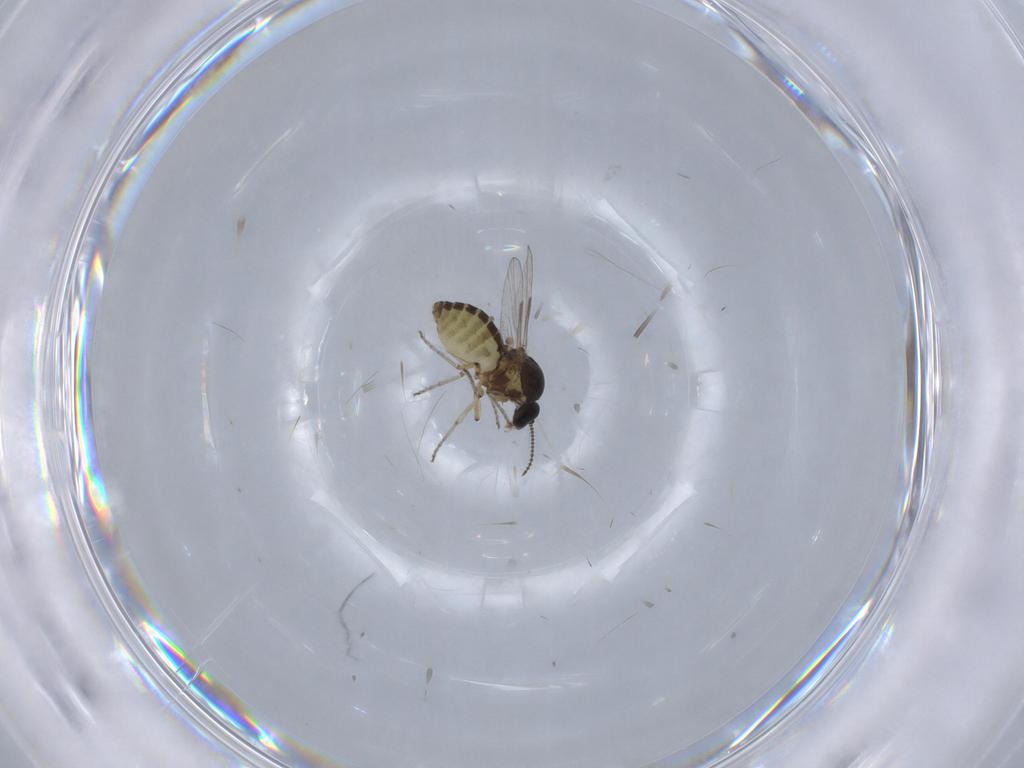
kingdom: Animalia
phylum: Arthropoda
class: Insecta
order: Diptera
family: Muscidae
